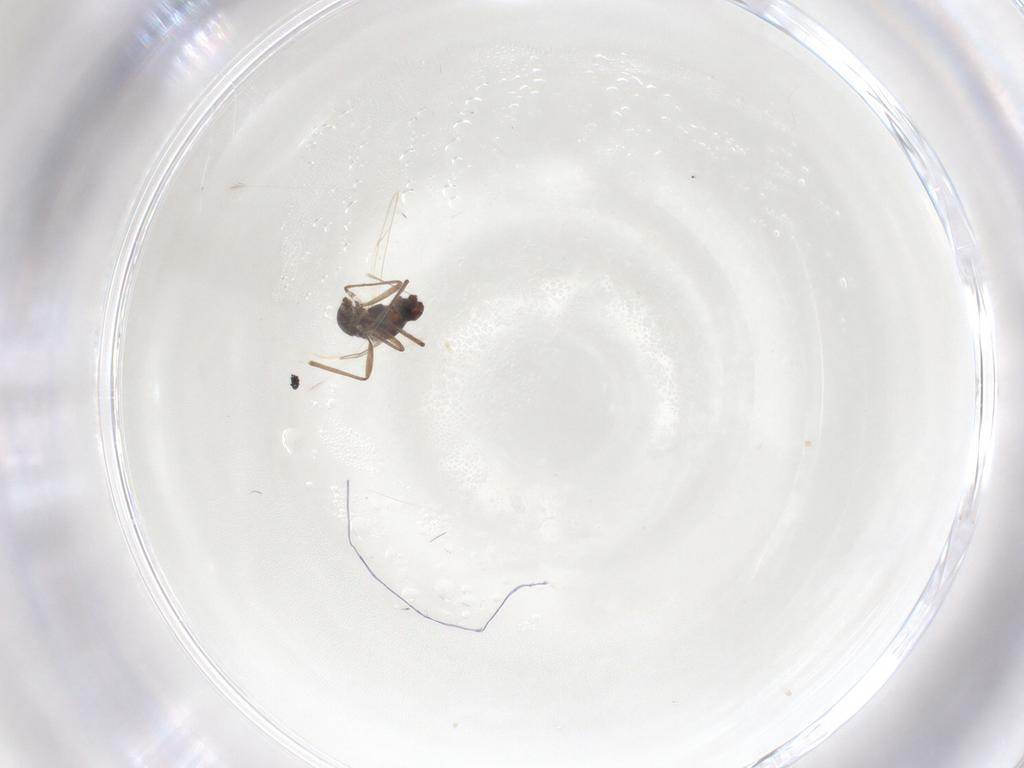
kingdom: Animalia
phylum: Arthropoda
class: Insecta
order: Diptera
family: Cecidomyiidae
